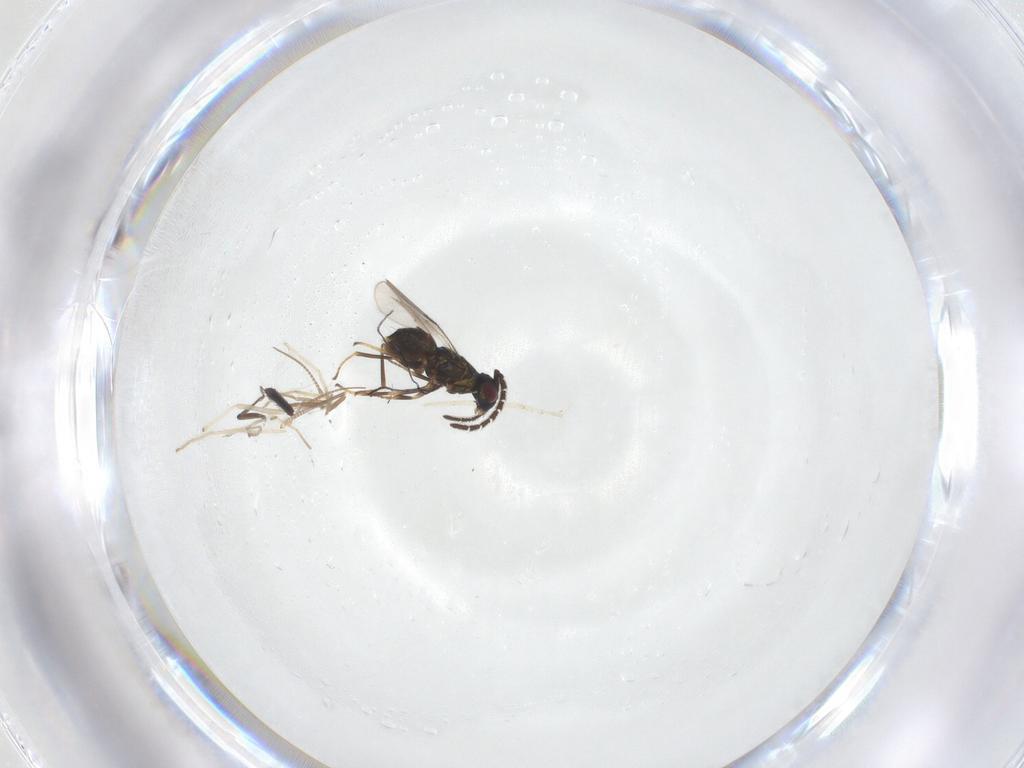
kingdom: Animalia
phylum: Arthropoda
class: Insecta
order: Hymenoptera
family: Encyrtidae
